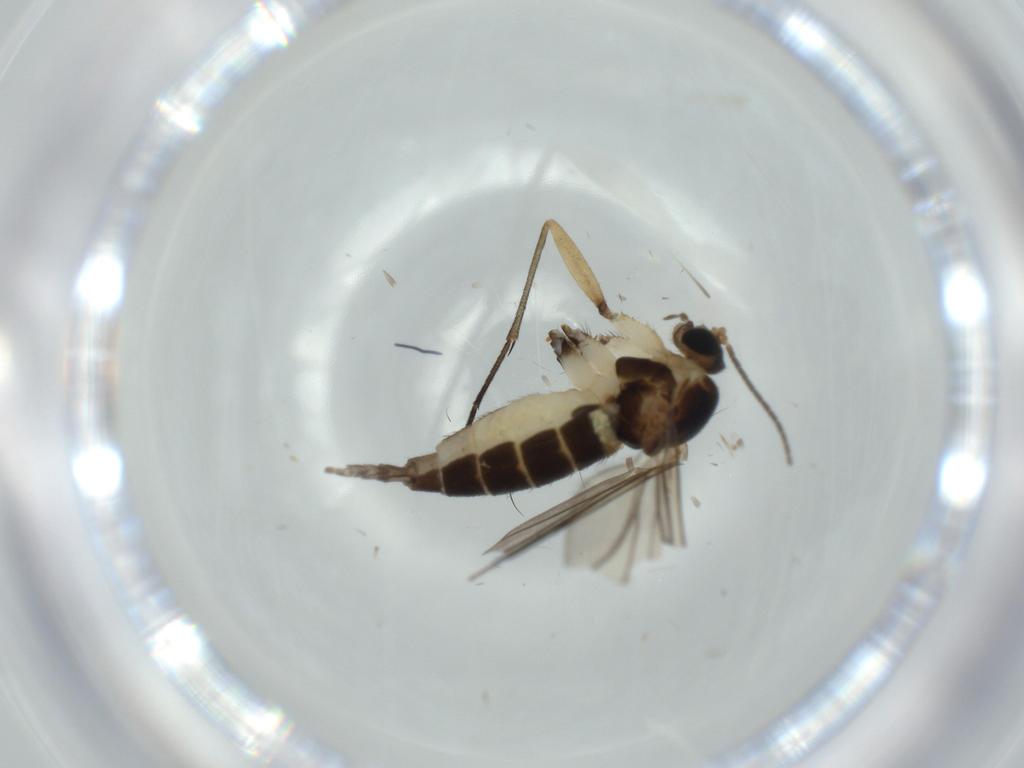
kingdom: Animalia
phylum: Arthropoda
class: Insecta
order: Diptera
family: Sciaridae
